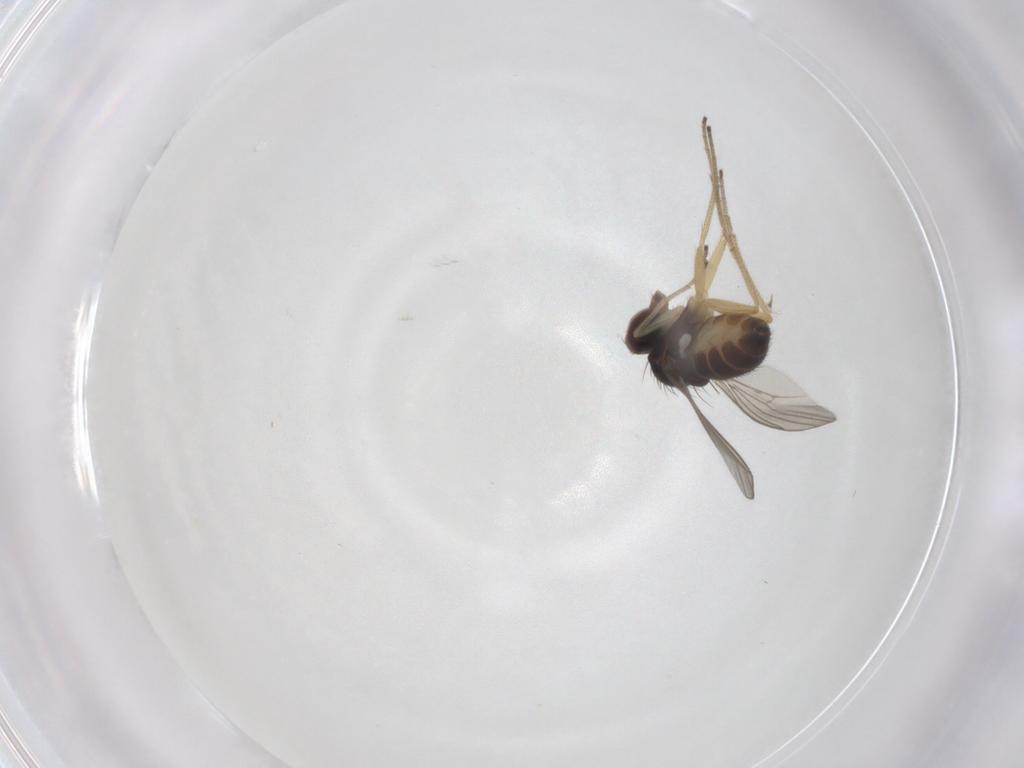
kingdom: Animalia
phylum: Arthropoda
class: Insecta
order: Diptera
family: Dolichopodidae
